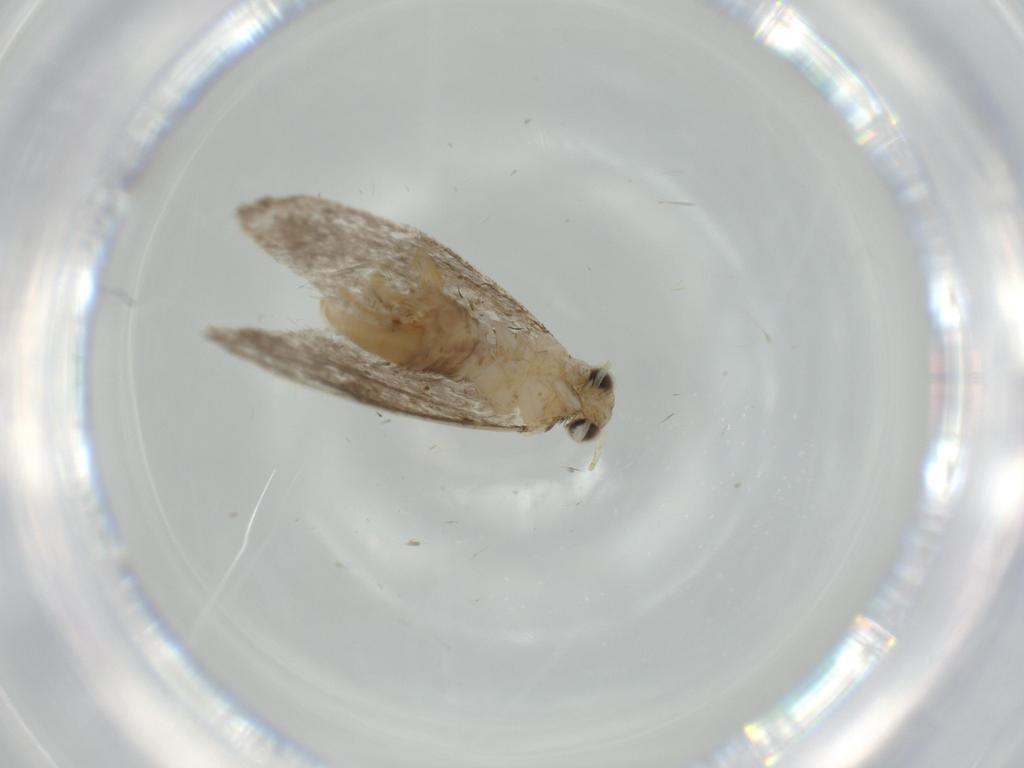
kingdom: Animalia
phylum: Arthropoda
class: Insecta
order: Lepidoptera
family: Tineidae
